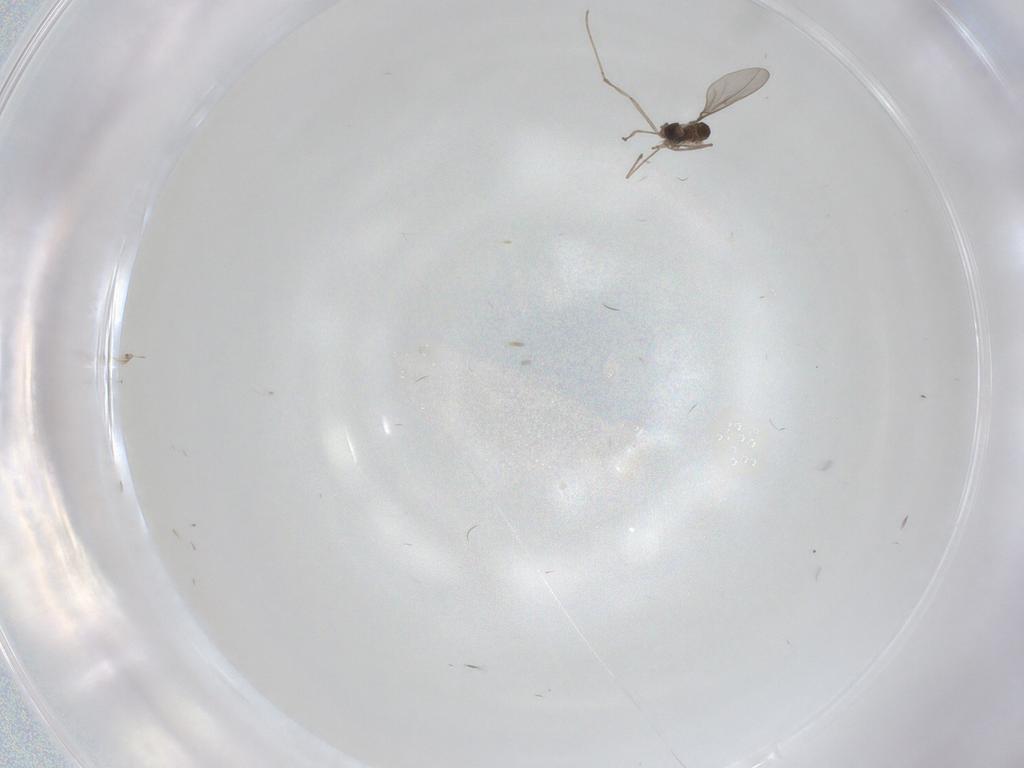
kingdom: Animalia
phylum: Arthropoda
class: Insecta
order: Diptera
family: Cecidomyiidae
